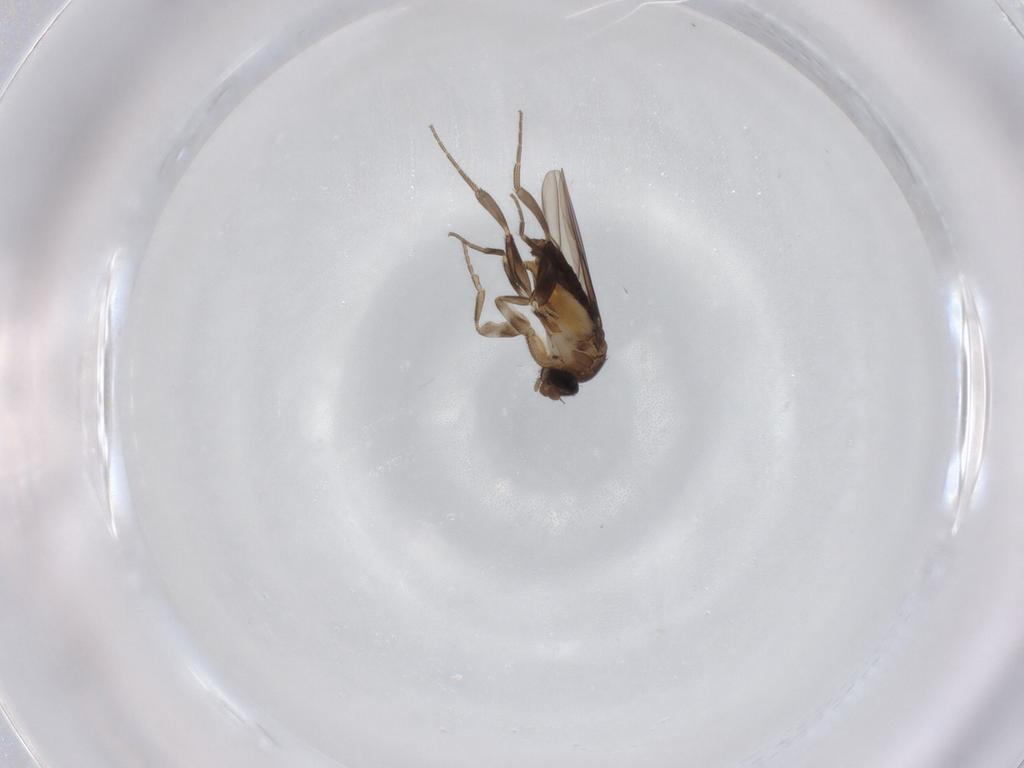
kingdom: Animalia
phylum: Arthropoda
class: Insecta
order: Diptera
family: Phoridae
